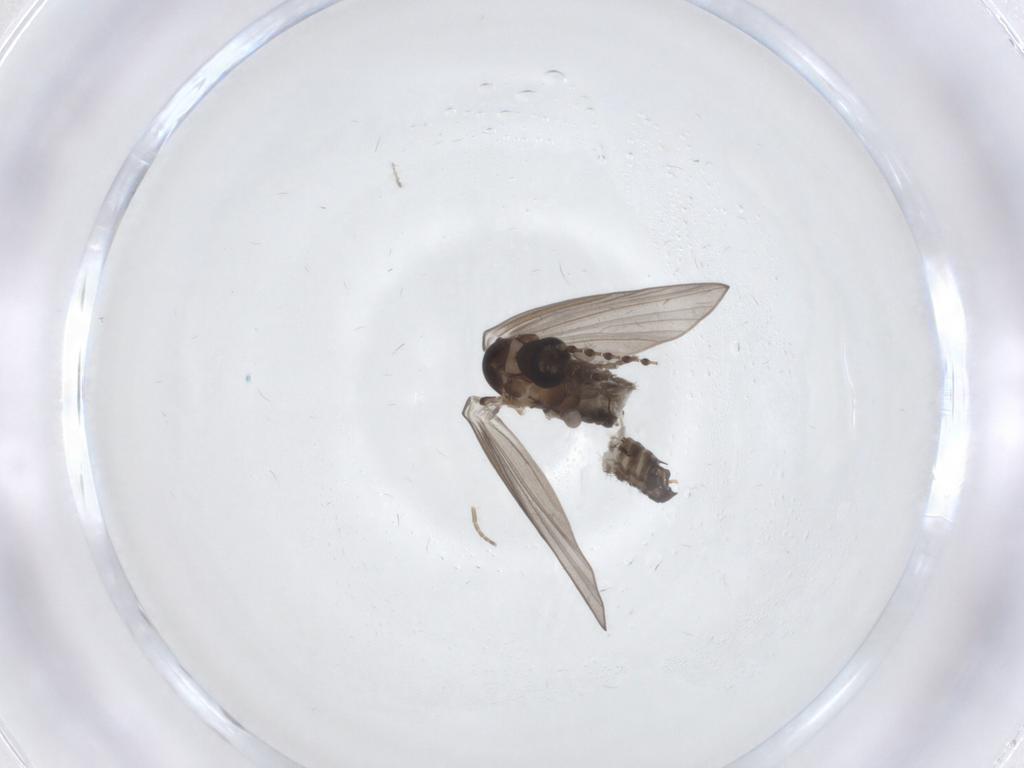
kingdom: Animalia
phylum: Arthropoda
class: Insecta
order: Diptera
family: Psychodidae
